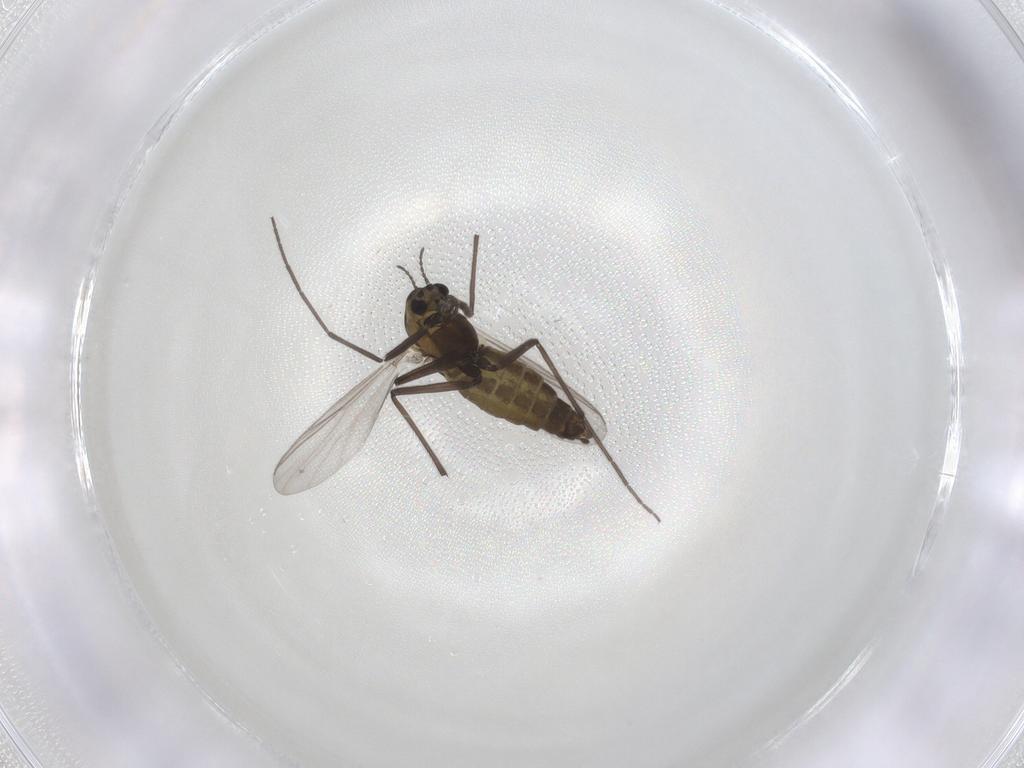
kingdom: Animalia
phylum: Arthropoda
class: Insecta
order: Diptera
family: Chironomidae
